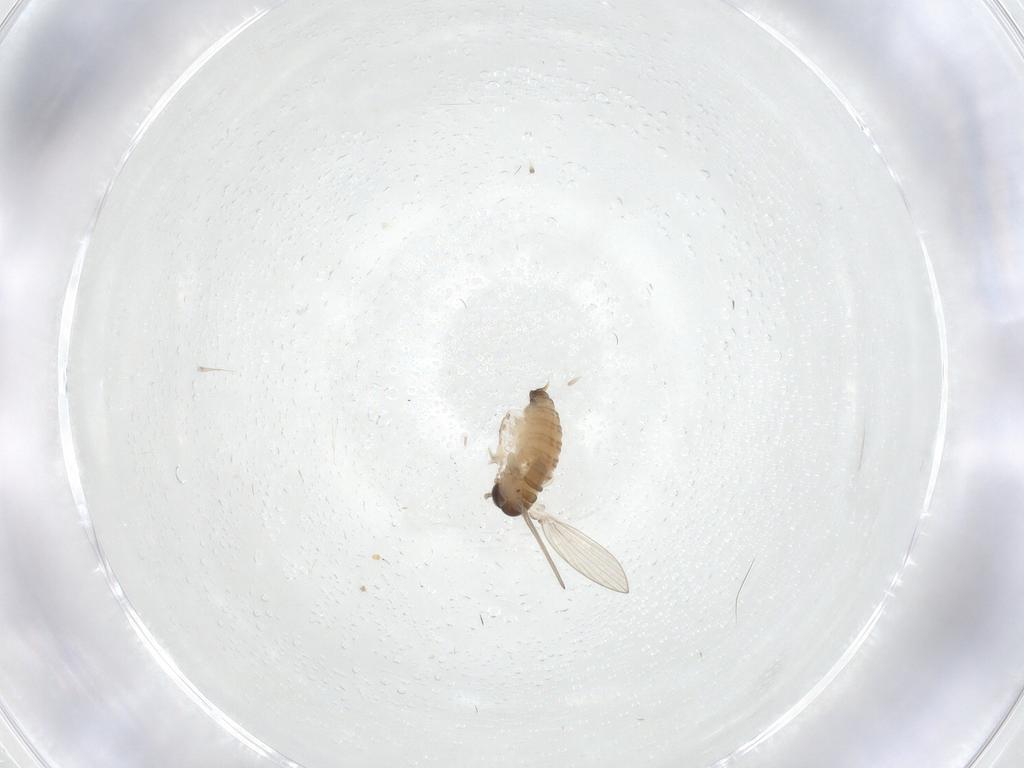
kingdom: Animalia
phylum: Arthropoda
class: Insecta
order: Diptera
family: Psychodidae
